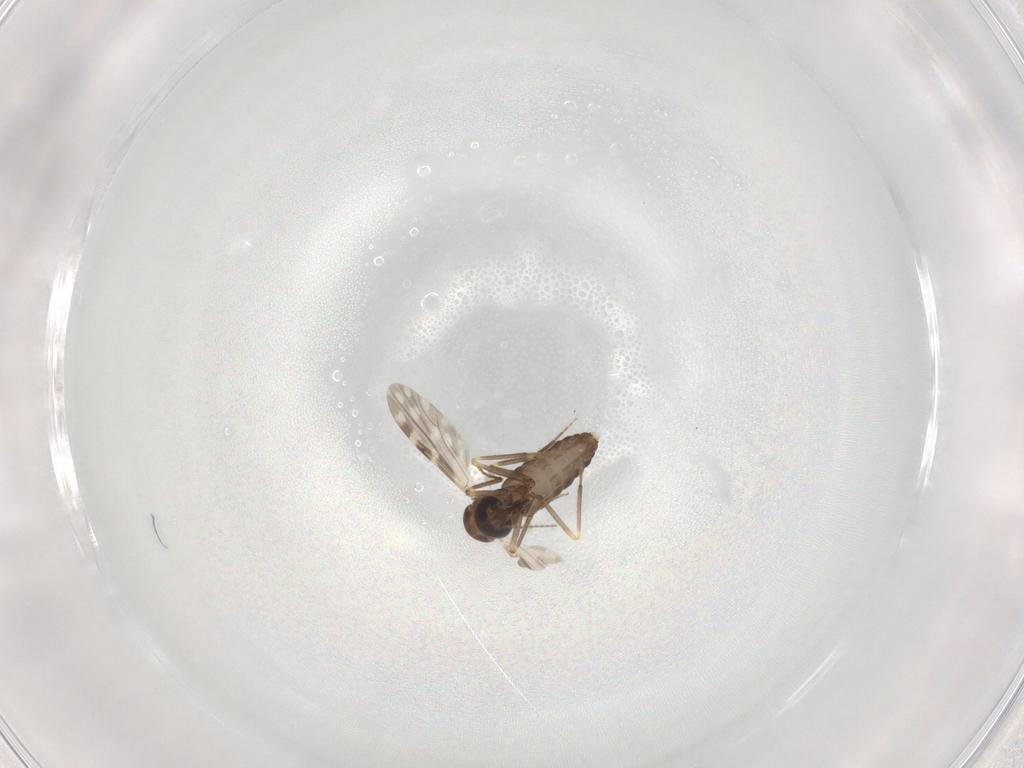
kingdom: Animalia
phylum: Arthropoda
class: Insecta
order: Diptera
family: Ceratopogonidae
